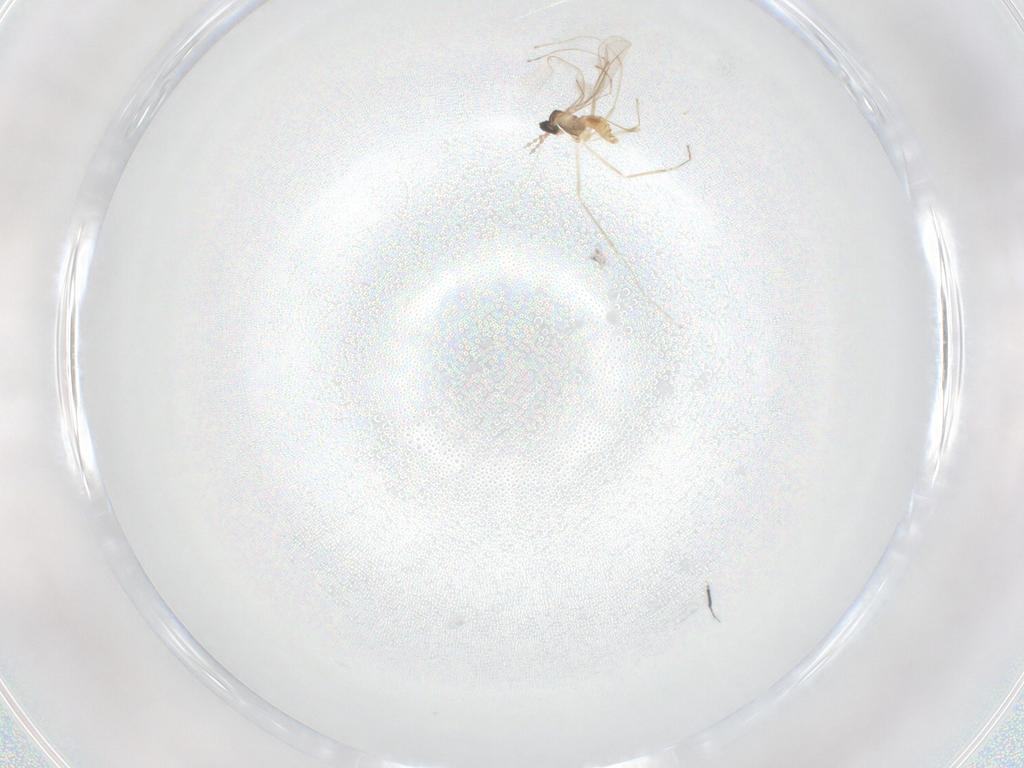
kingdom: Animalia
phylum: Arthropoda
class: Insecta
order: Diptera
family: Cecidomyiidae
